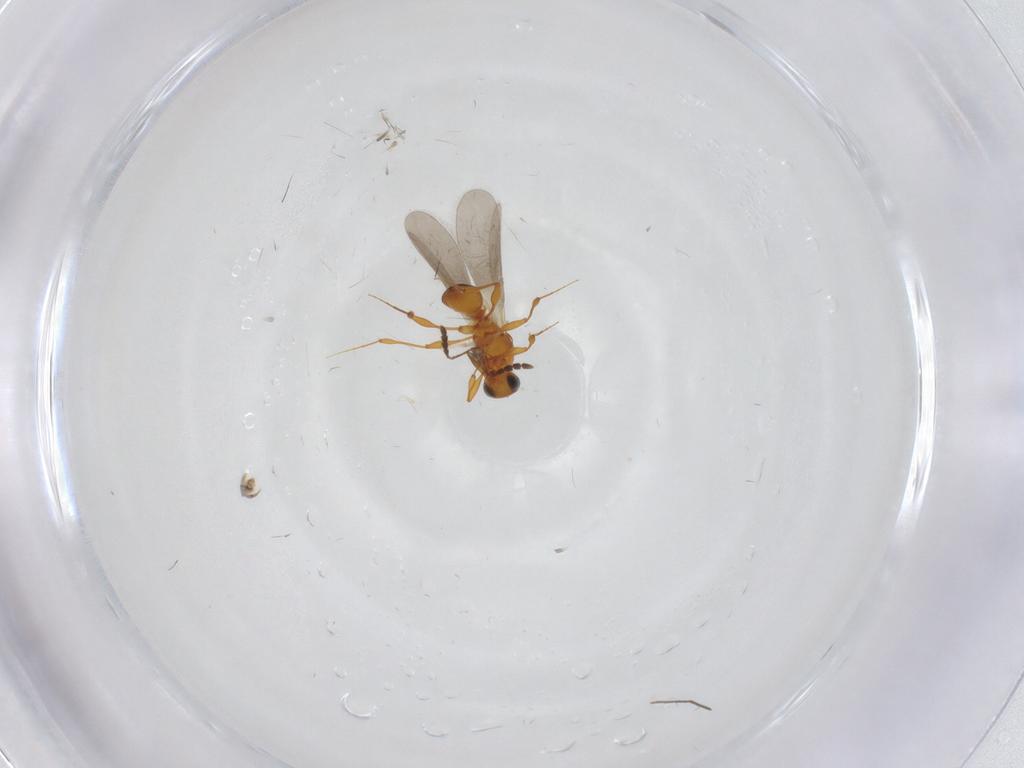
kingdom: Animalia
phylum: Arthropoda
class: Insecta
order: Hymenoptera
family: Platygastridae
